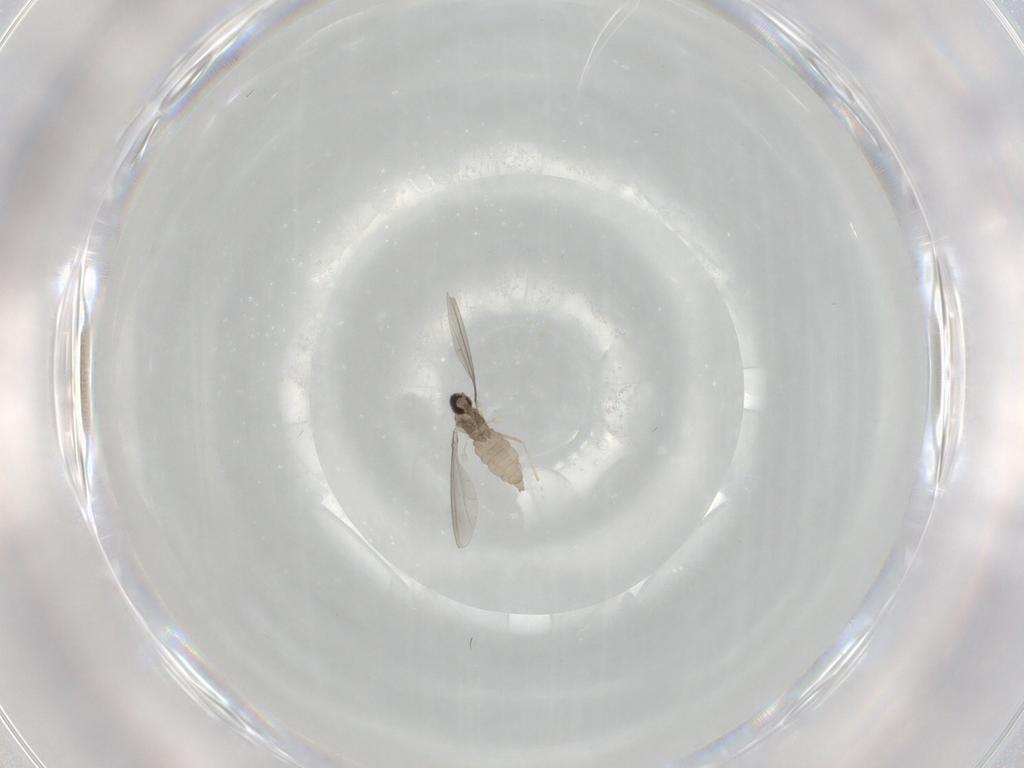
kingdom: Animalia
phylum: Arthropoda
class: Insecta
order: Diptera
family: Cecidomyiidae
